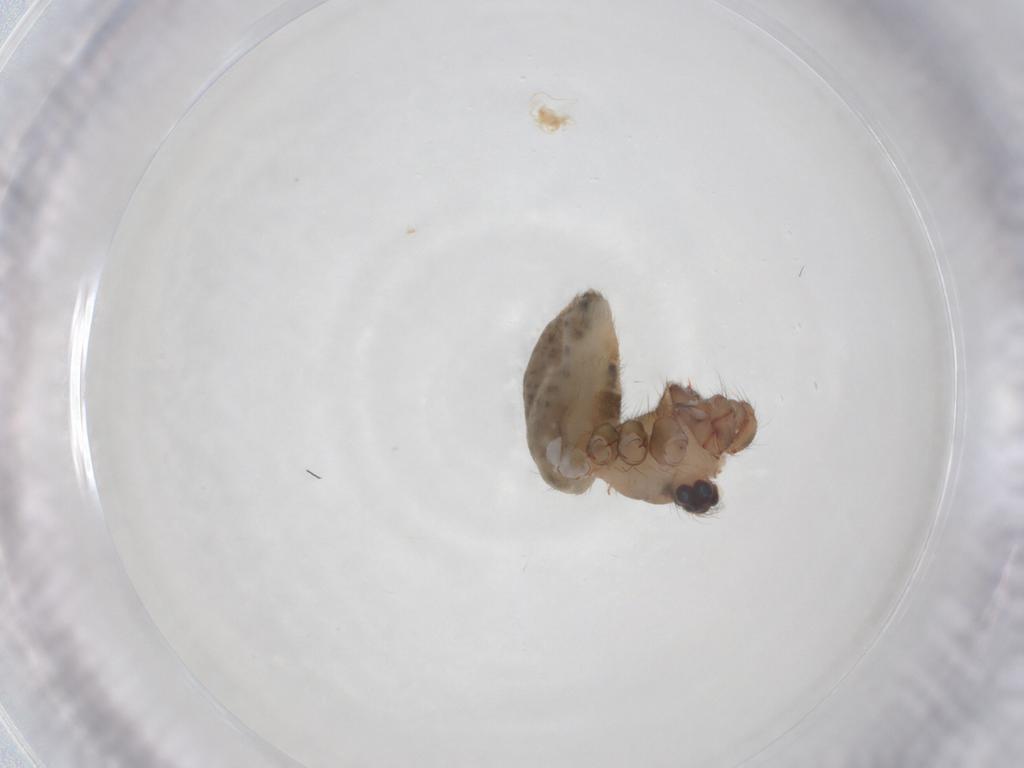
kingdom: Animalia
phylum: Arthropoda
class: Arachnida
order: Araneae
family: Pholcidae
